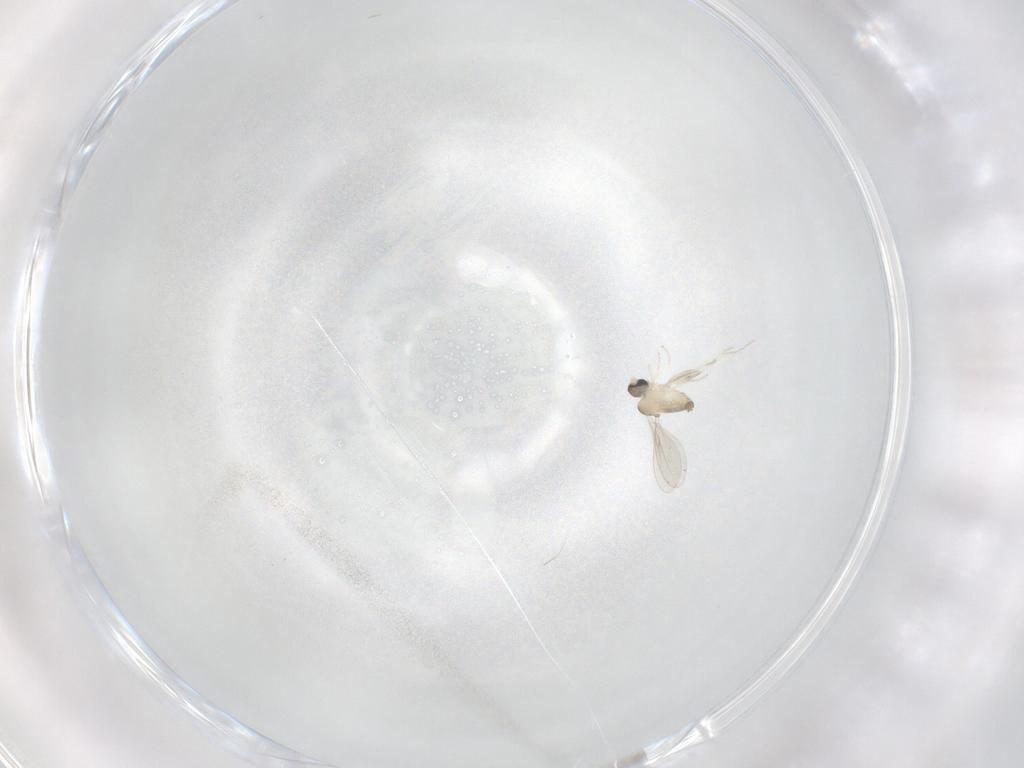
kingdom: Animalia
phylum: Arthropoda
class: Insecta
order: Diptera
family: Cecidomyiidae
